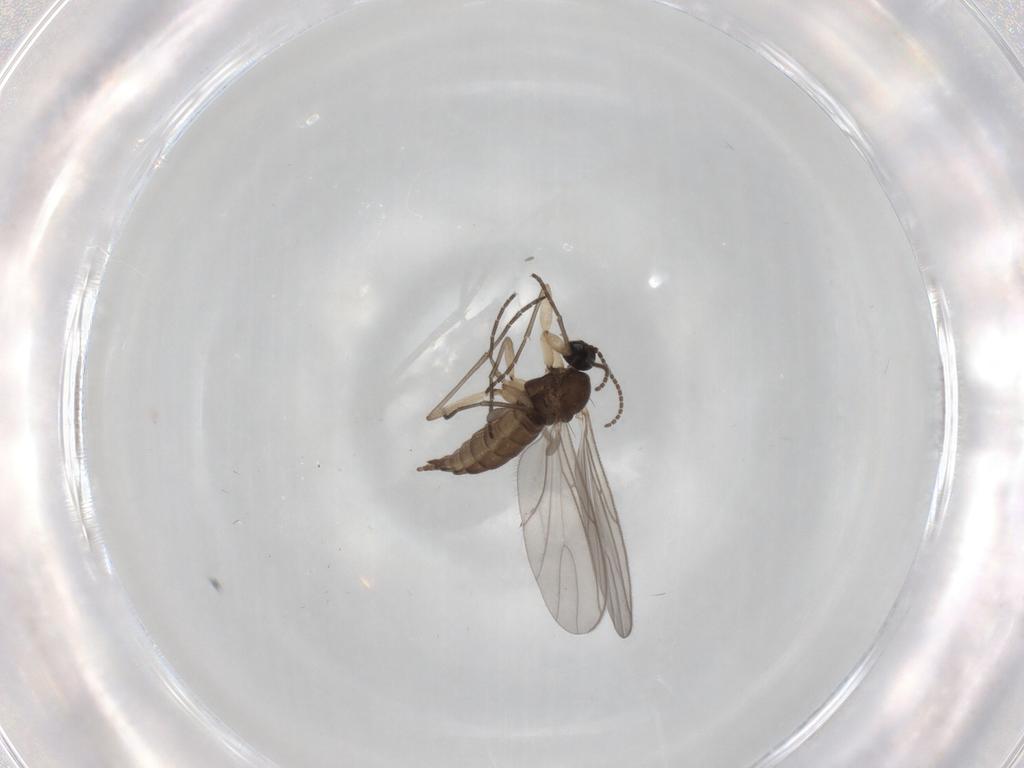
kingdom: Animalia
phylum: Arthropoda
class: Insecta
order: Diptera
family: Sciaridae
